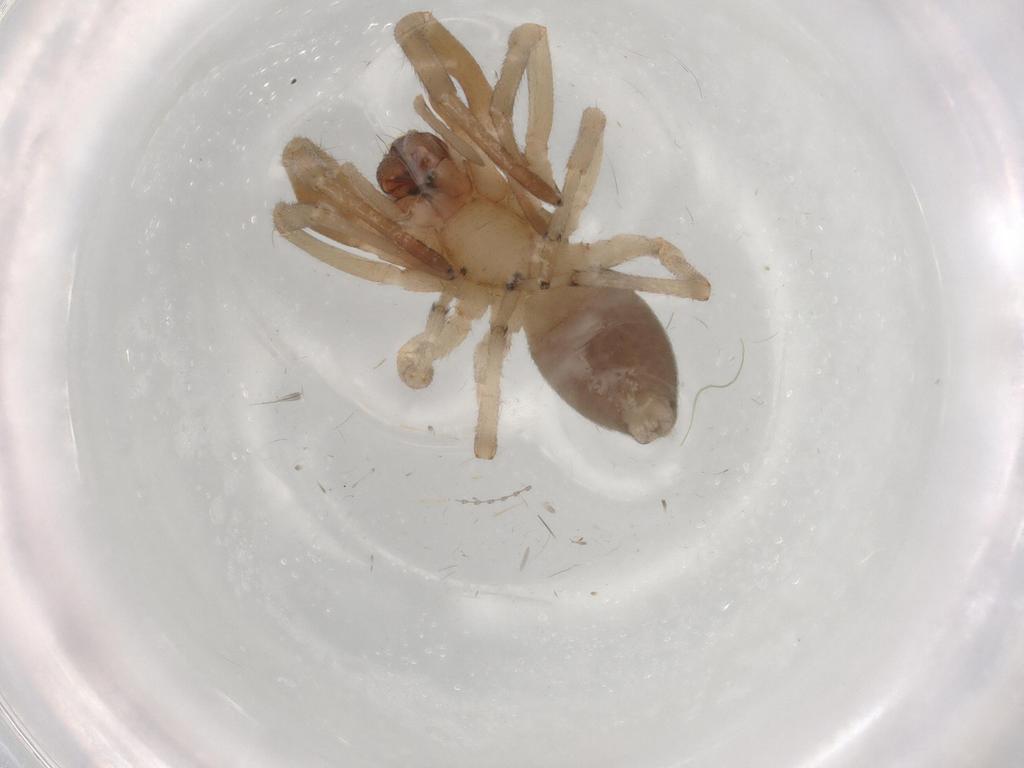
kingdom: Animalia
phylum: Arthropoda
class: Arachnida
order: Araneae
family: Trachelidae
